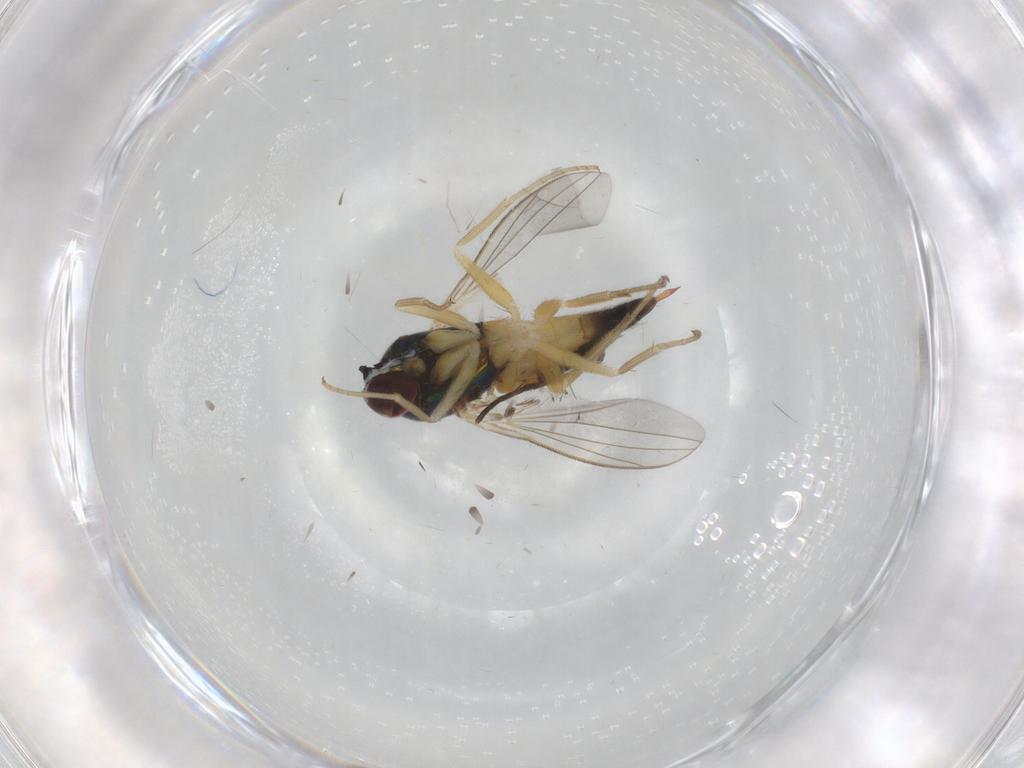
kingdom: Animalia
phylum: Arthropoda
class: Insecta
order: Diptera
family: Dolichopodidae
